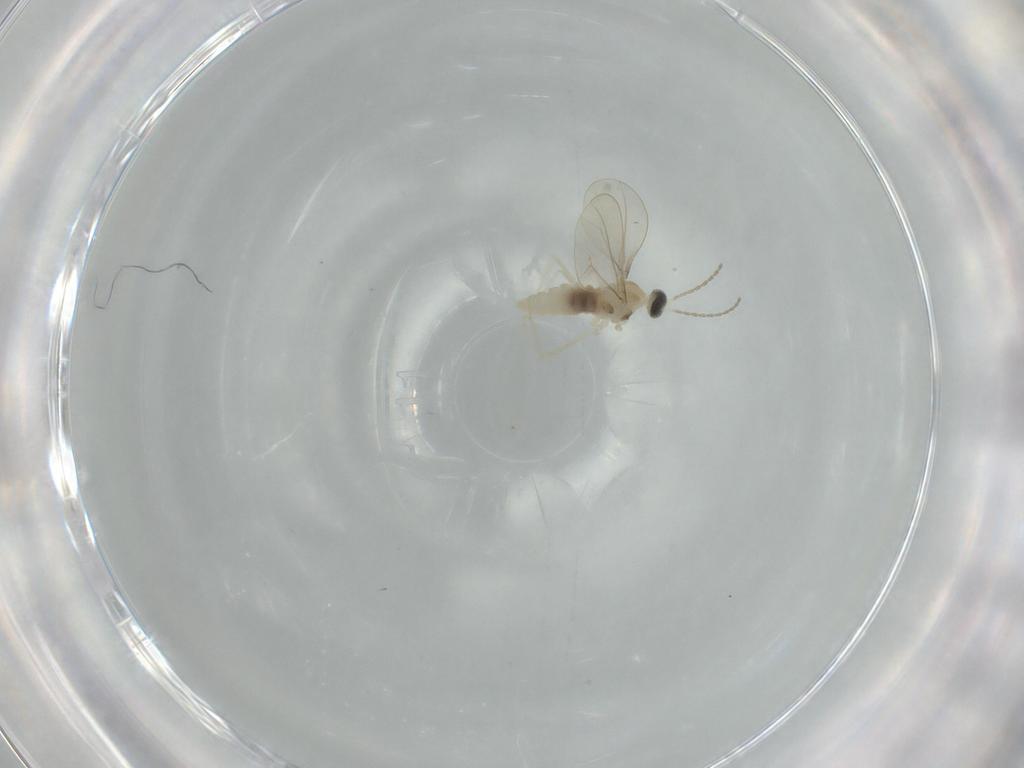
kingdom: Animalia
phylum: Arthropoda
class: Insecta
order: Diptera
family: Cecidomyiidae
